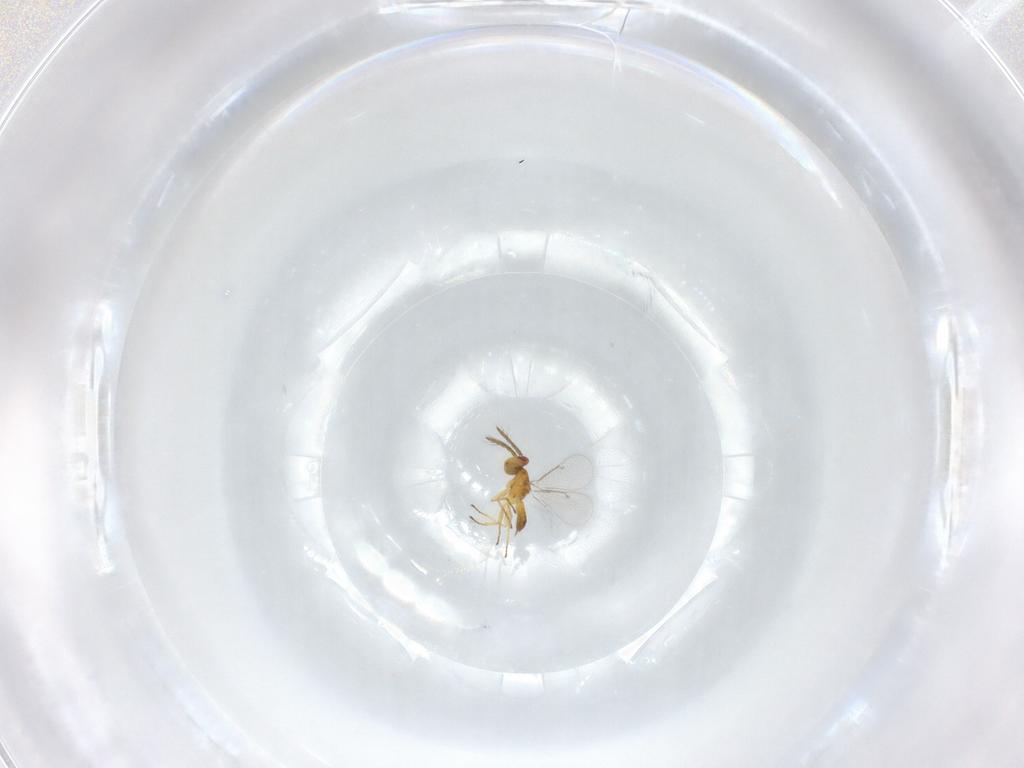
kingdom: Animalia
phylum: Arthropoda
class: Insecta
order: Hymenoptera
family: Eulophidae
